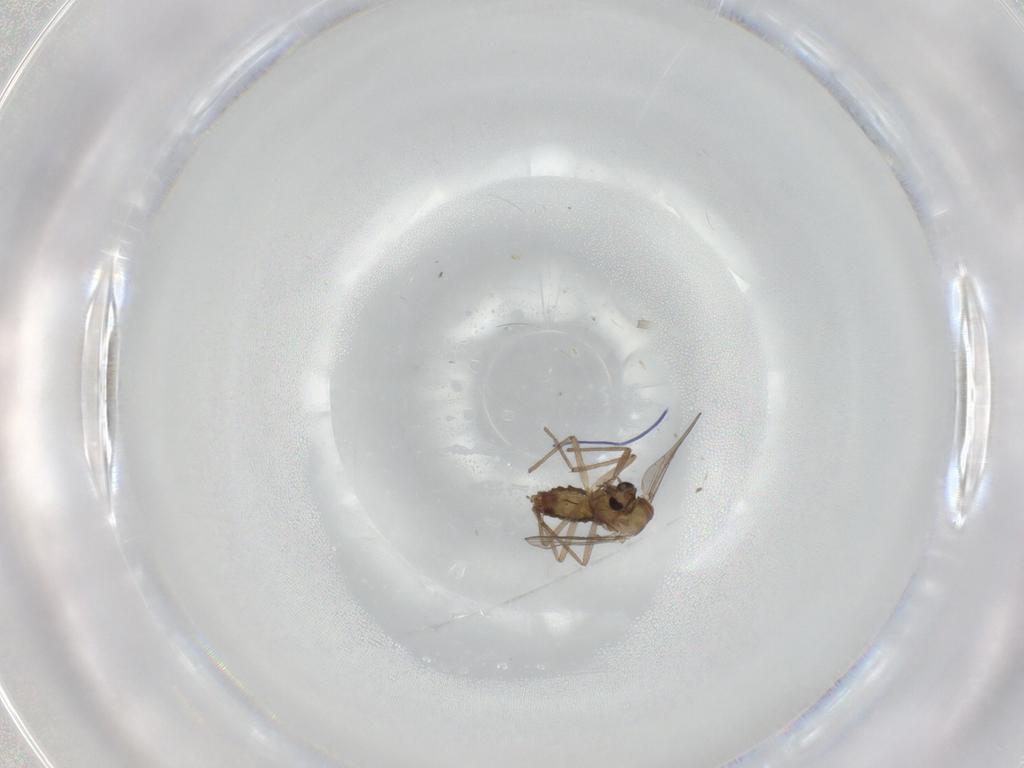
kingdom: Animalia
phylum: Arthropoda
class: Insecta
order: Diptera
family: Chironomidae
